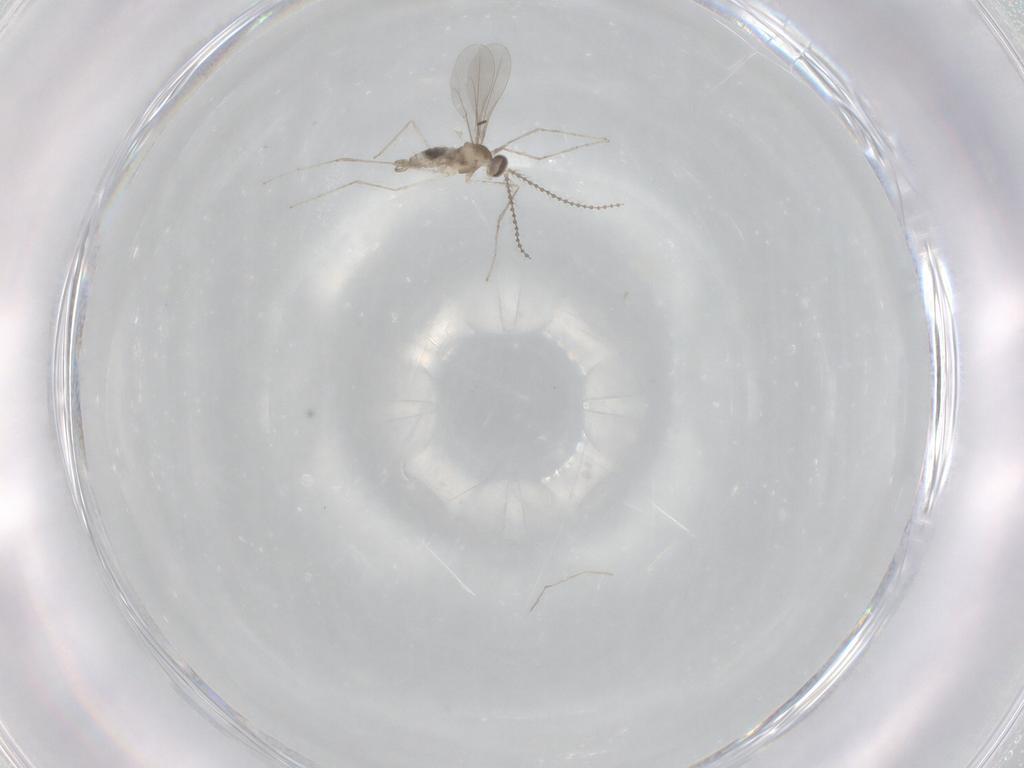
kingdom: Animalia
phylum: Arthropoda
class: Insecta
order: Diptera
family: Cecidomyiidae
